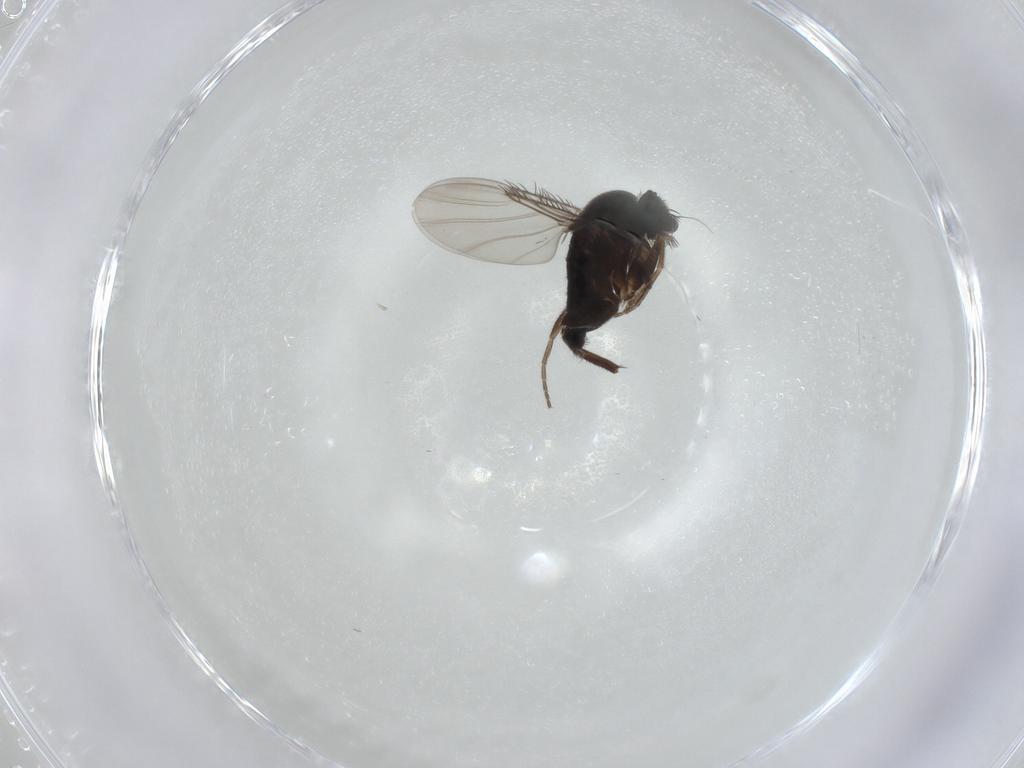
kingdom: Animalia
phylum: Arthropoda
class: Insecta
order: Diptera
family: Phoridae
